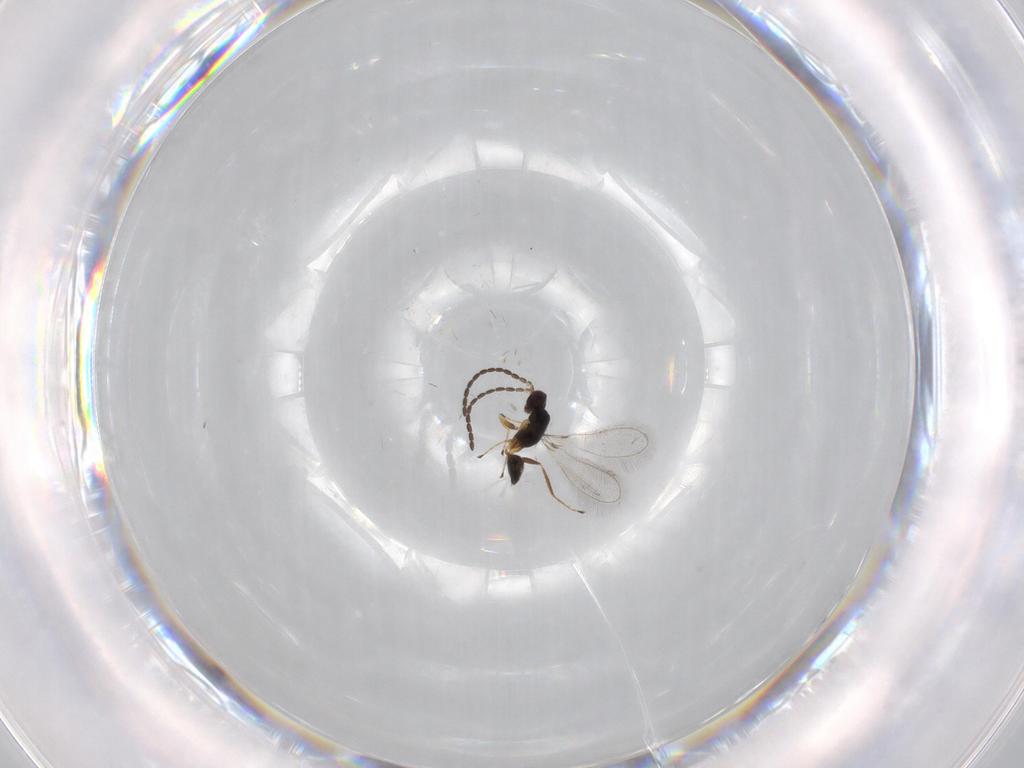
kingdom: Animalia
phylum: Arthropoda
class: Insecta
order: Hymenoptera
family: Mymaridae
